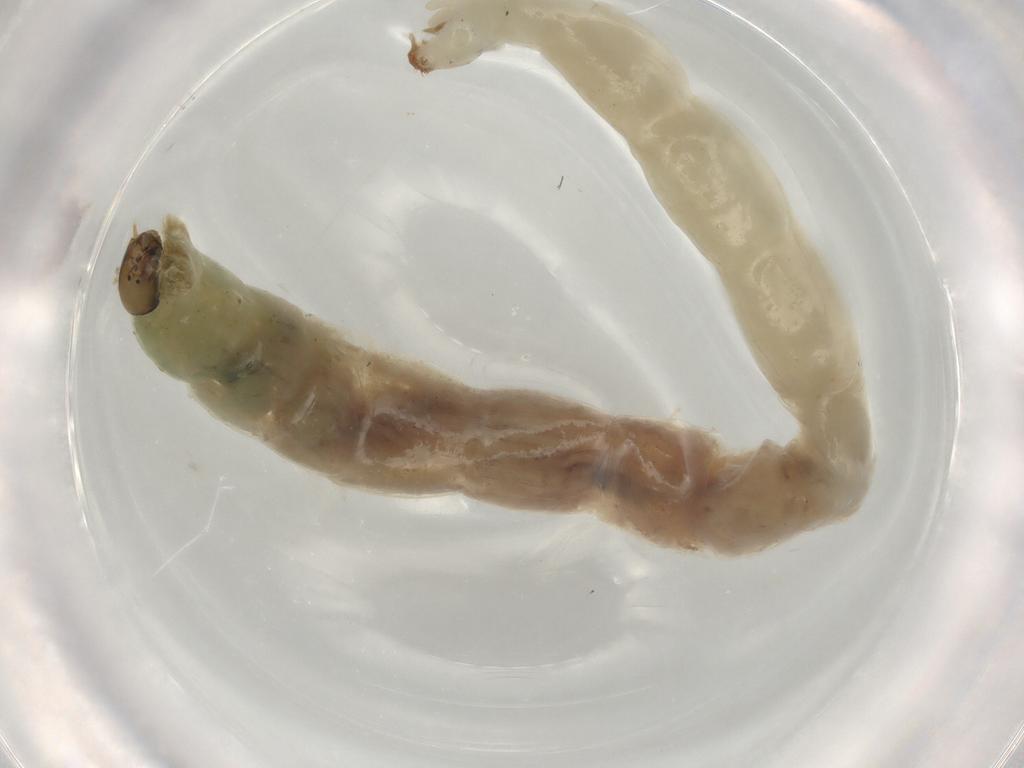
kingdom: Animalia
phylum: Arthropoda
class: Insecta
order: Diptera
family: Chironomidae
